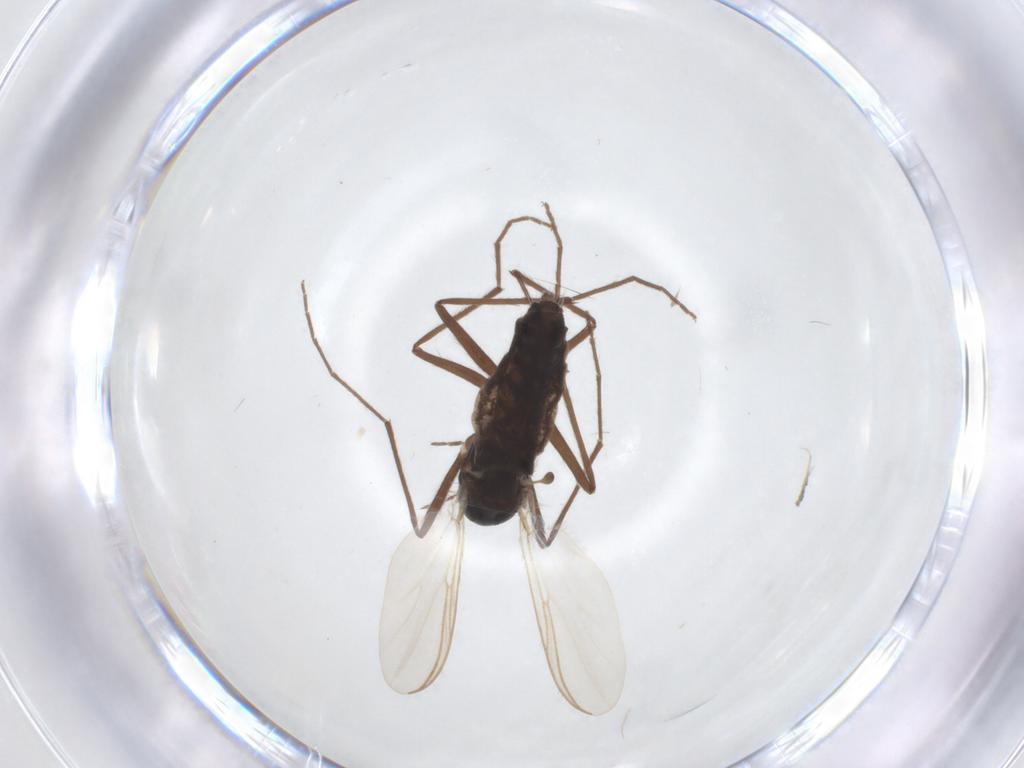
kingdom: Animalia
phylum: Arthropoda
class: Insecta
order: Diptera
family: Chironomidae
